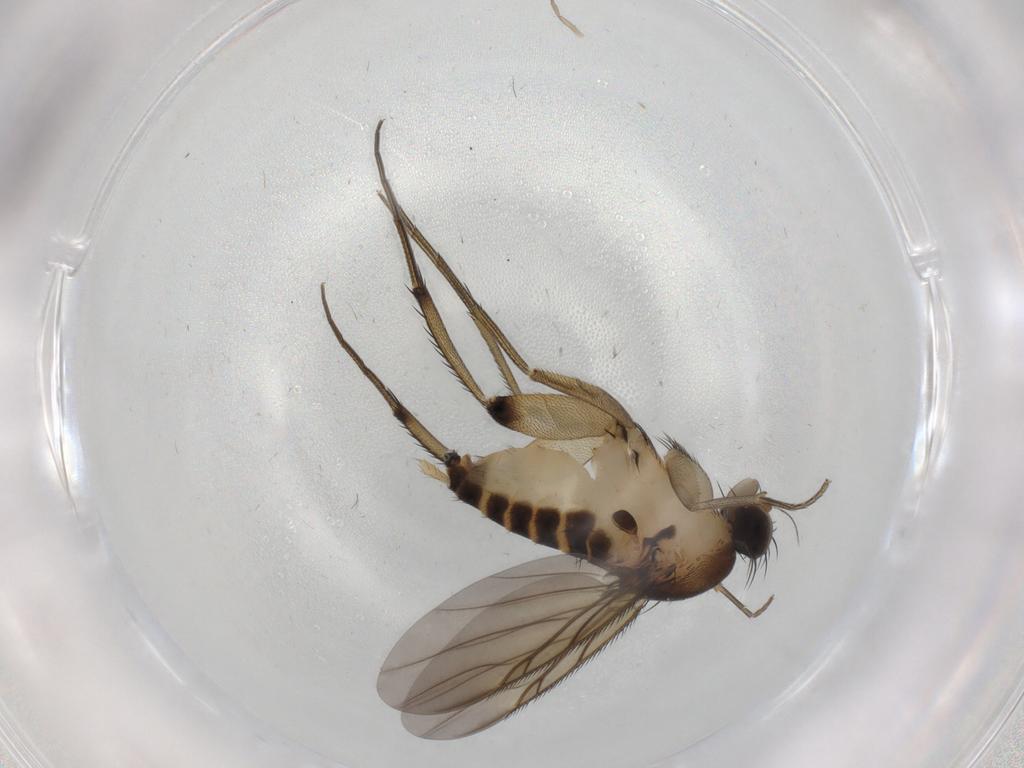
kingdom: Animalia
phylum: Arthropoda
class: Insecta
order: Diptera
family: Phoridae
